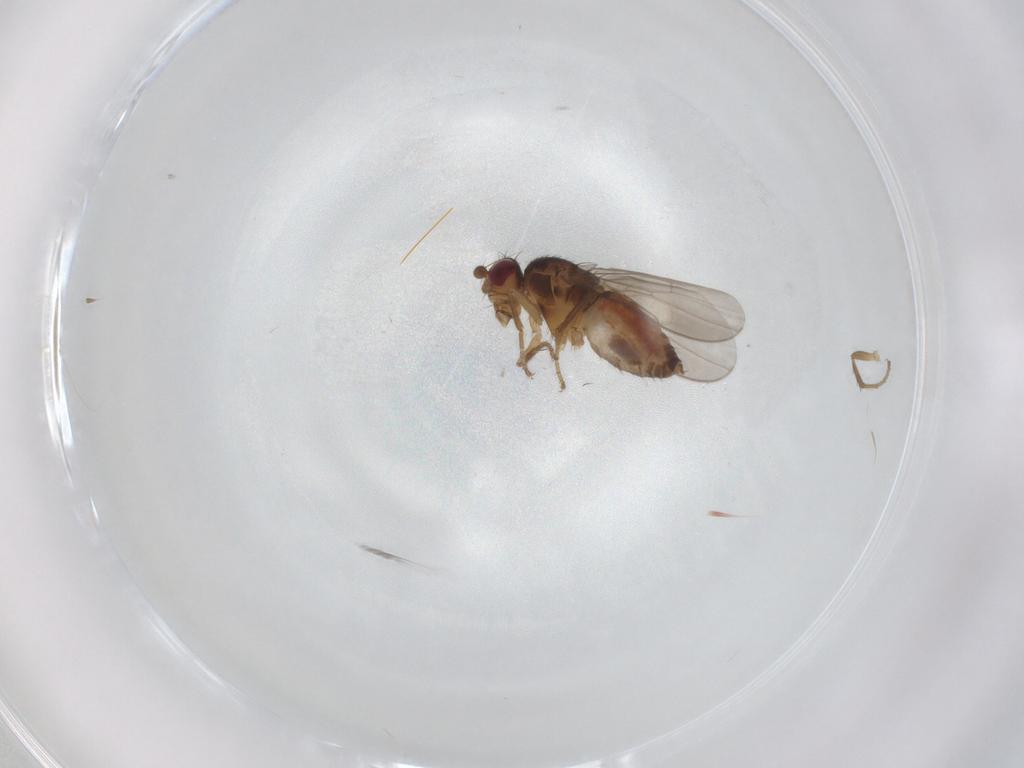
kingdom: Animalia
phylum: Arthropoda
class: Insecta
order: Diptera
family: Sphaeroceridae
